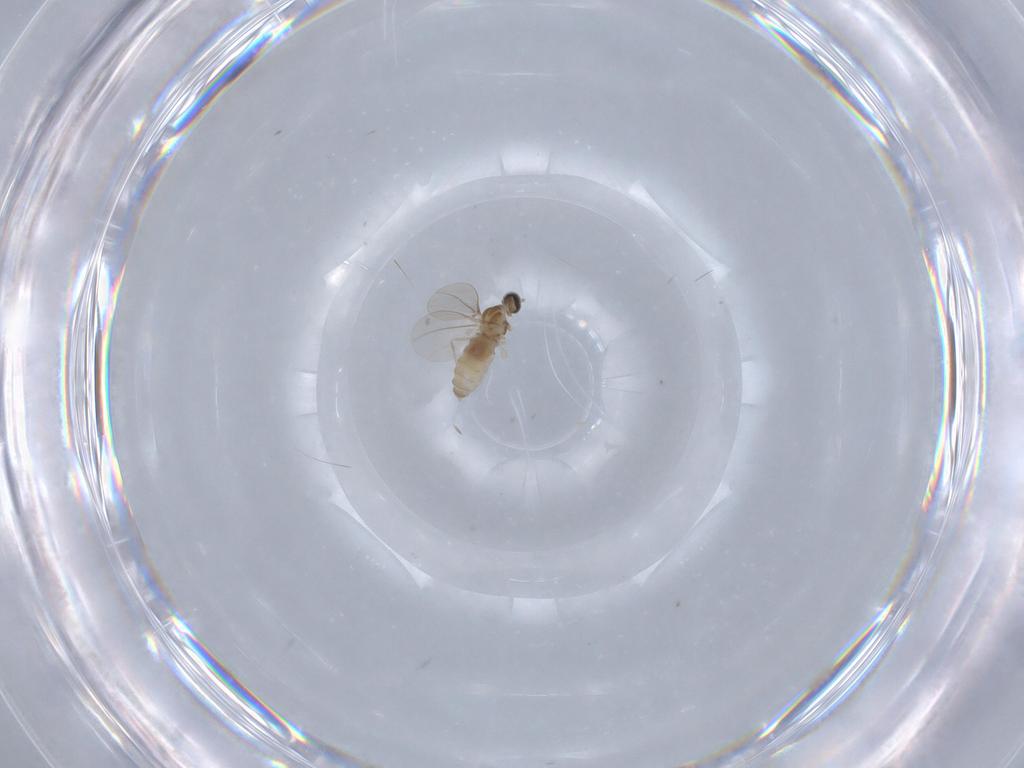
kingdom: Animalia
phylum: Arthropoda
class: Insecta
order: Diptera
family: Cecidomyiidae
